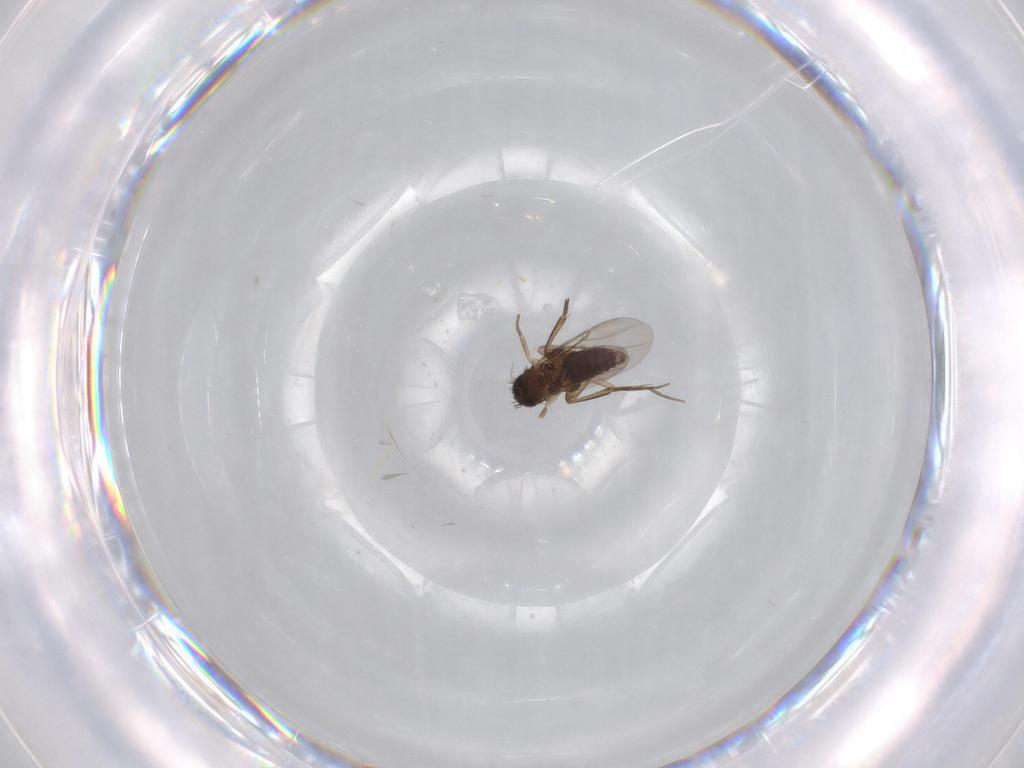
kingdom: Animalia
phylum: Arthropoda
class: Insecta
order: Diptera
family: Phoridae
